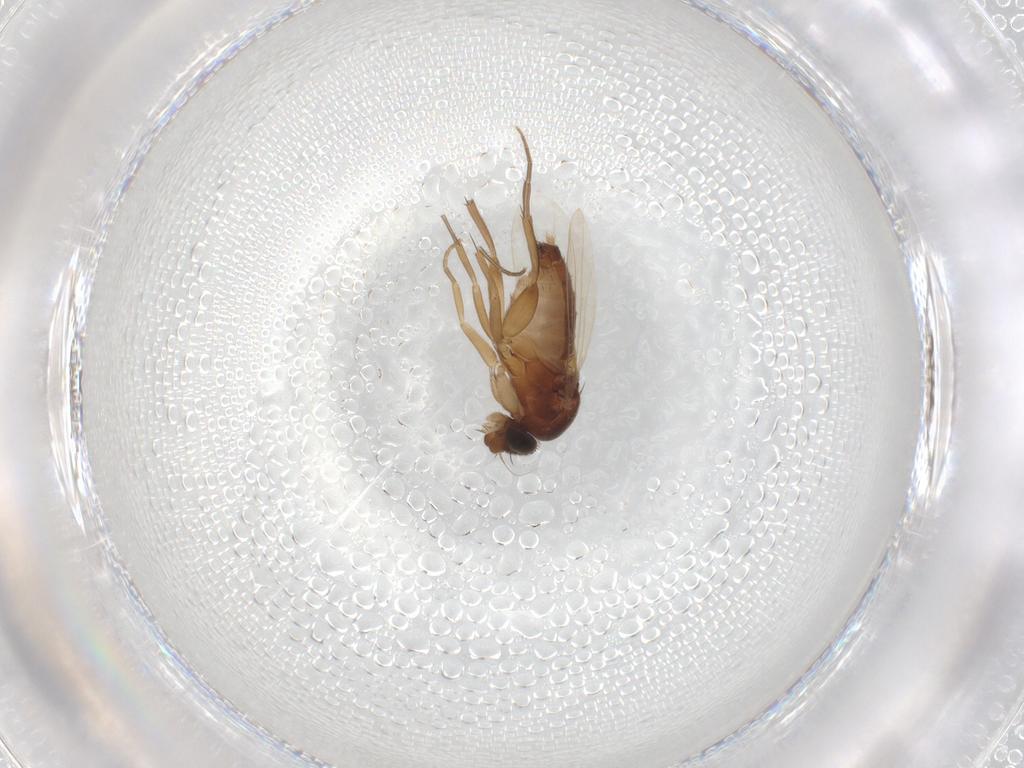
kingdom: Animalia
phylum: Arthropoda
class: Insecta
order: Diptera
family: Phoridae
